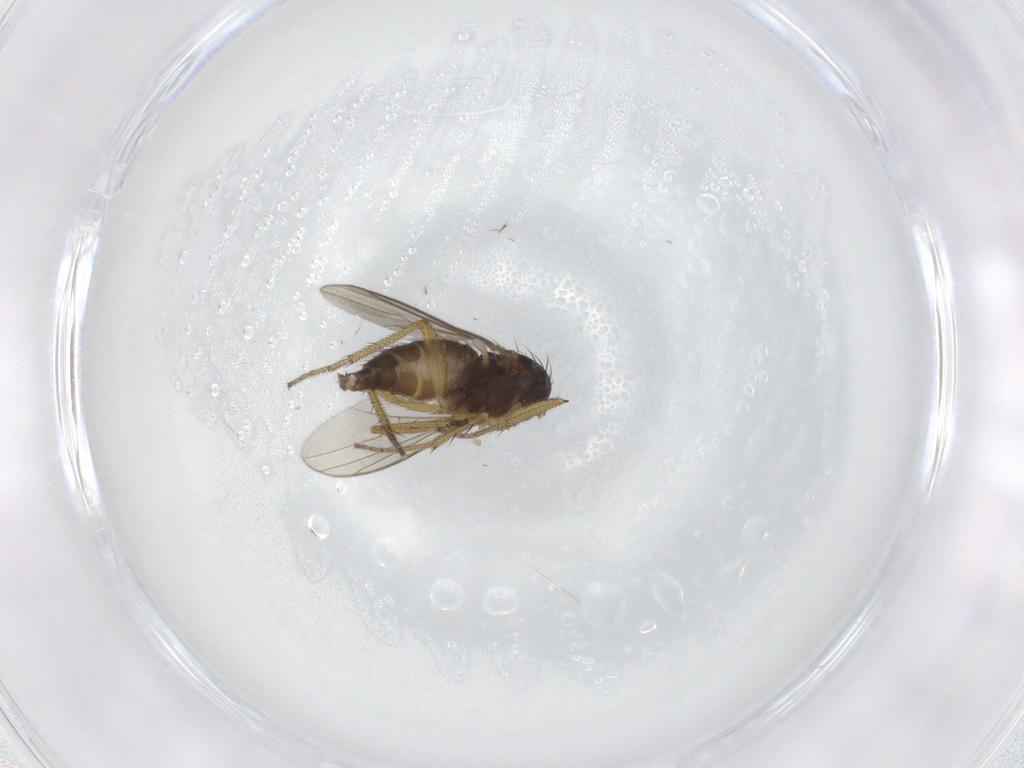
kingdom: Animalia
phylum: Arthropoda
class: Insecta
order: Diptera
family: Dolichopodidae
